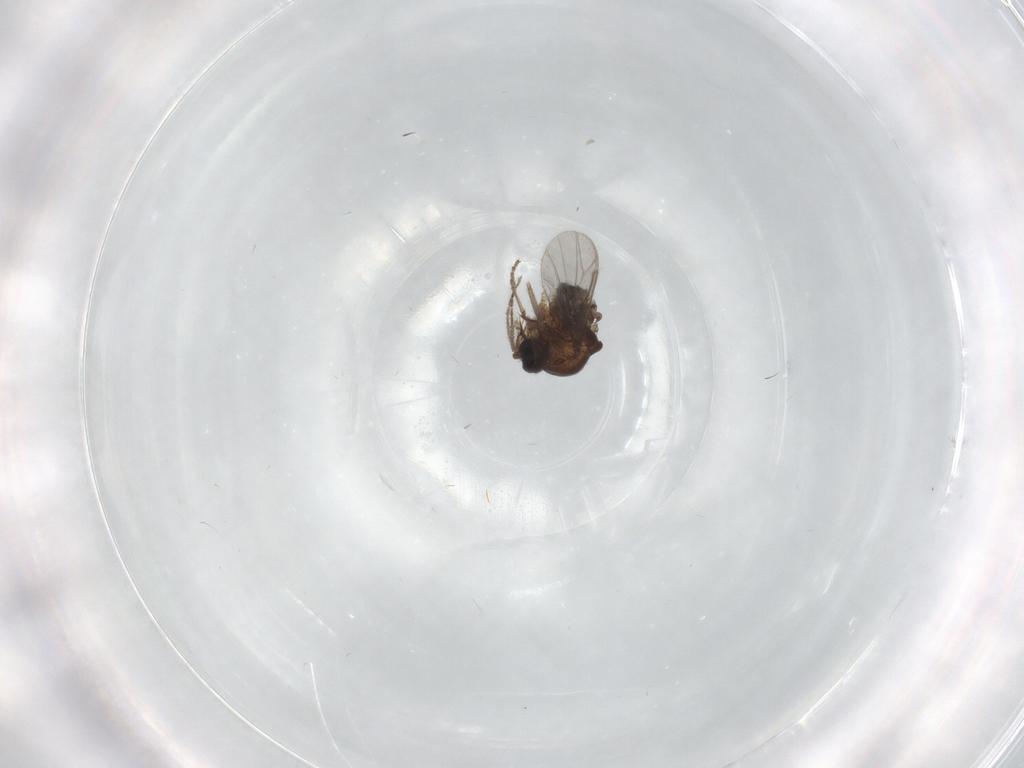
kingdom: Animalia
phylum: Arthropoda
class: Insecta
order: Diptera
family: Ceratopogonidae
